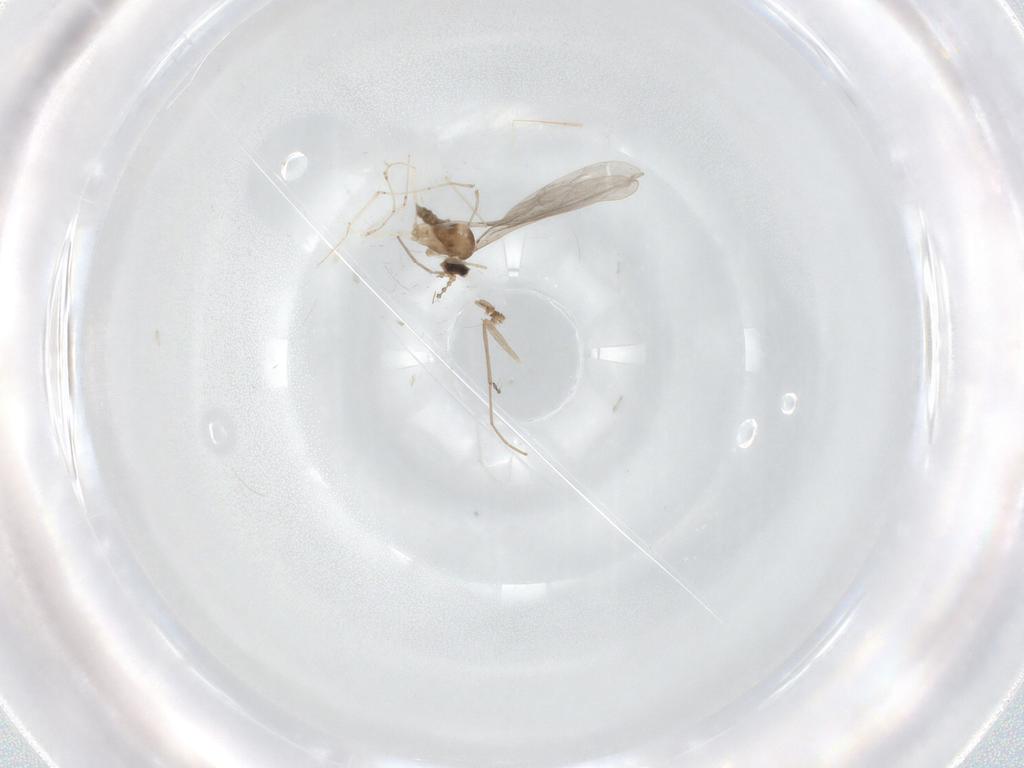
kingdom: Animalia
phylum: Arthropoda
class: Insecta
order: Diptera
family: Cecidomyiidae
